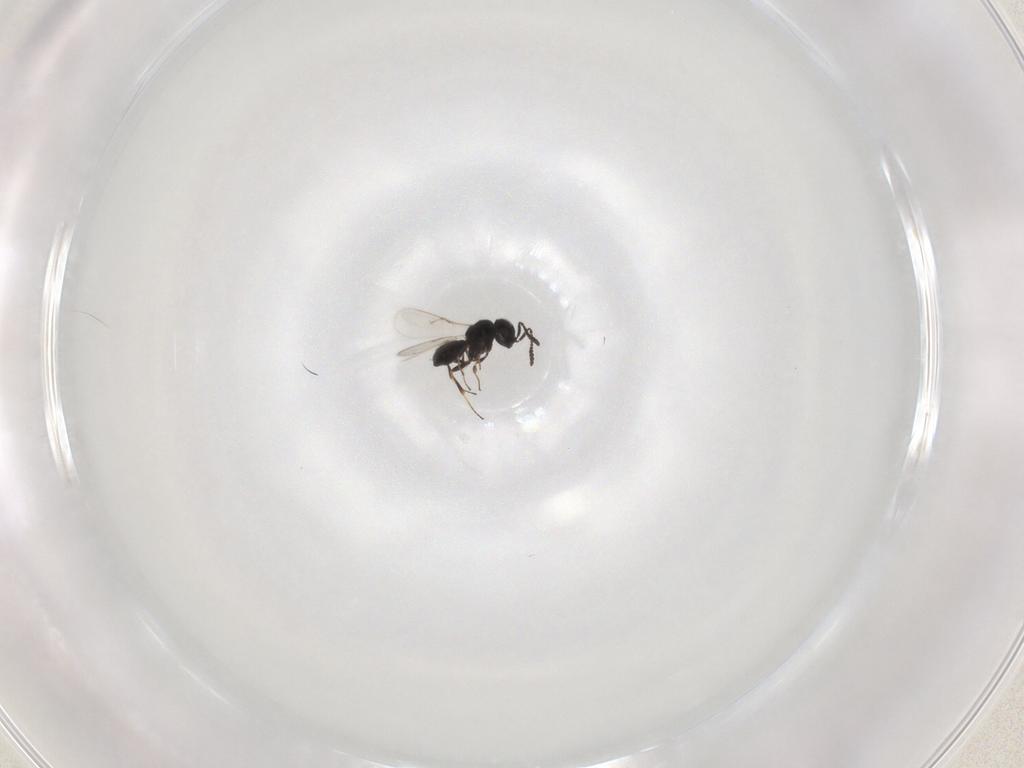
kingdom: Animalia
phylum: Arthropoda
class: Insecta
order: Hymenoptera
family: Scelionidae
